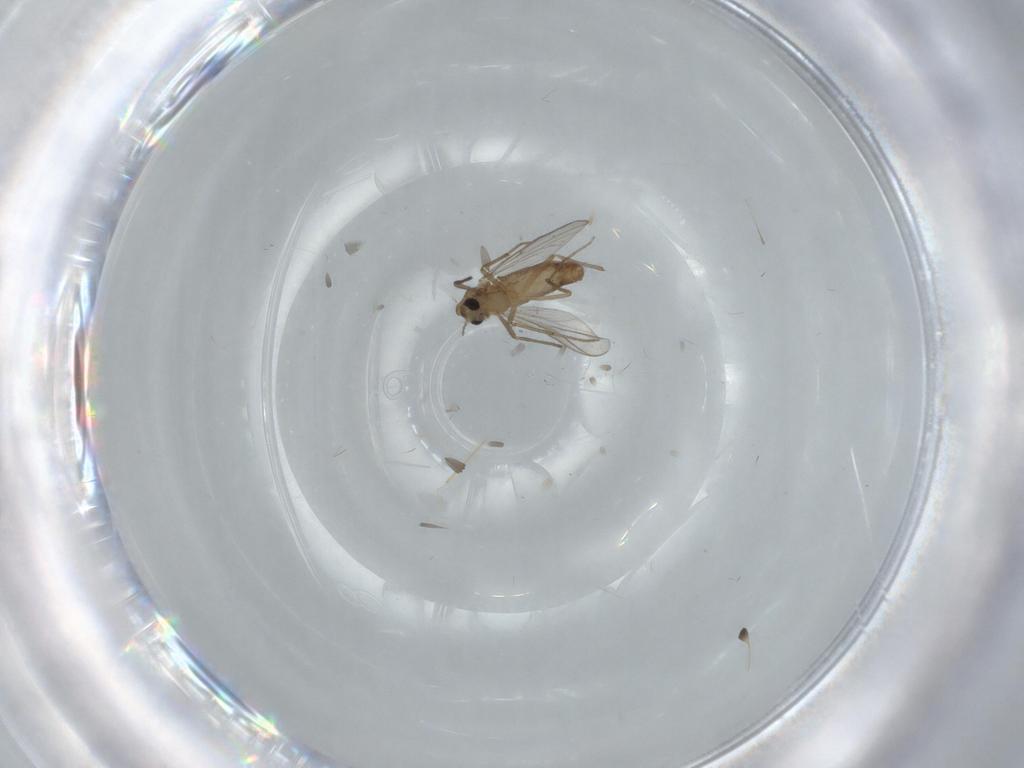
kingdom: Animalia
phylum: Arthropoda
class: Insecta
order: Diptera
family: Chironomidae
